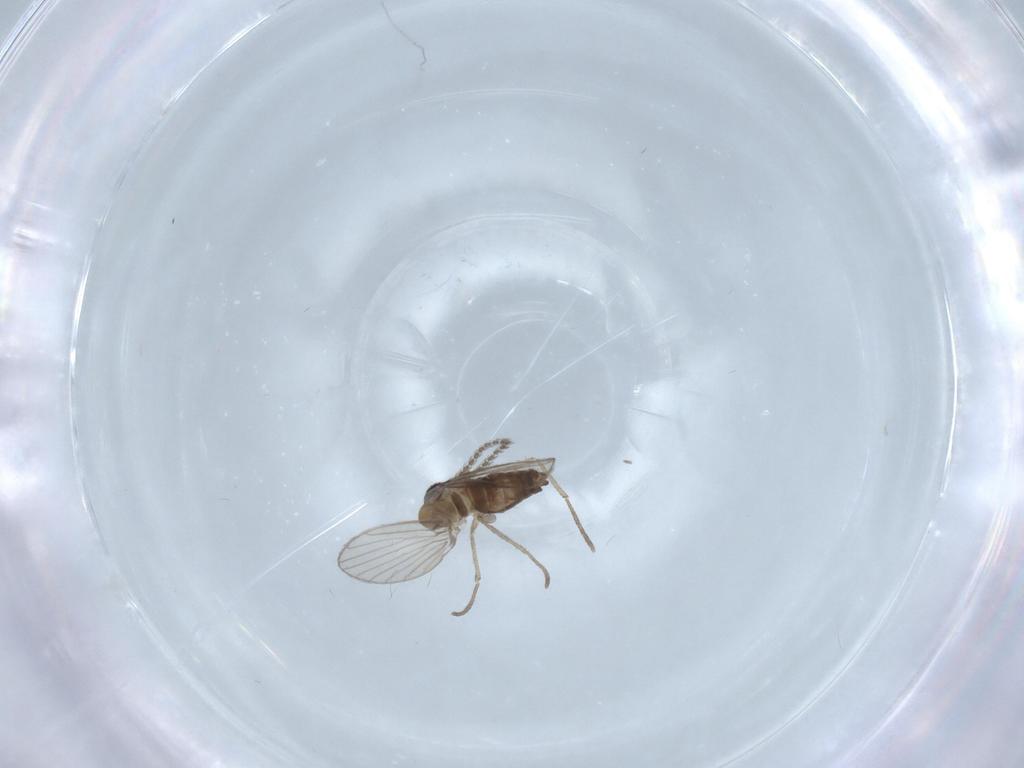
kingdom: Animalia
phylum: Arthropoda
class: Insecta
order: Diptera
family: Psychodidae
